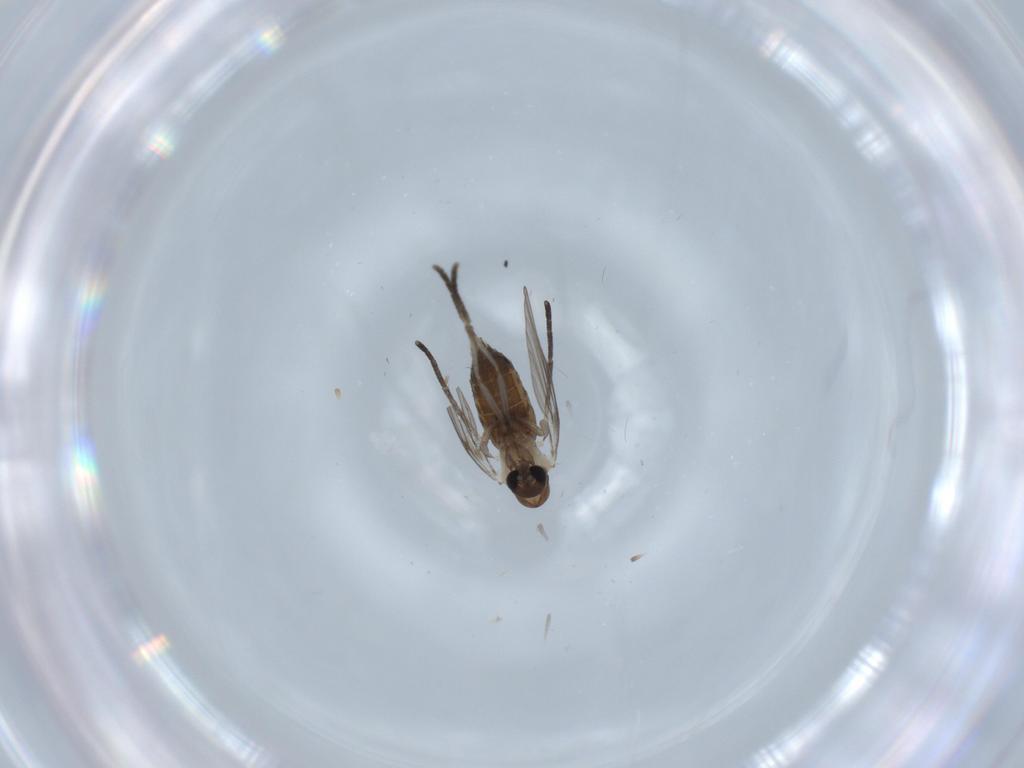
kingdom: Animalia
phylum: Arthropoda
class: Insecta
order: Diptera
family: Psychodidae
